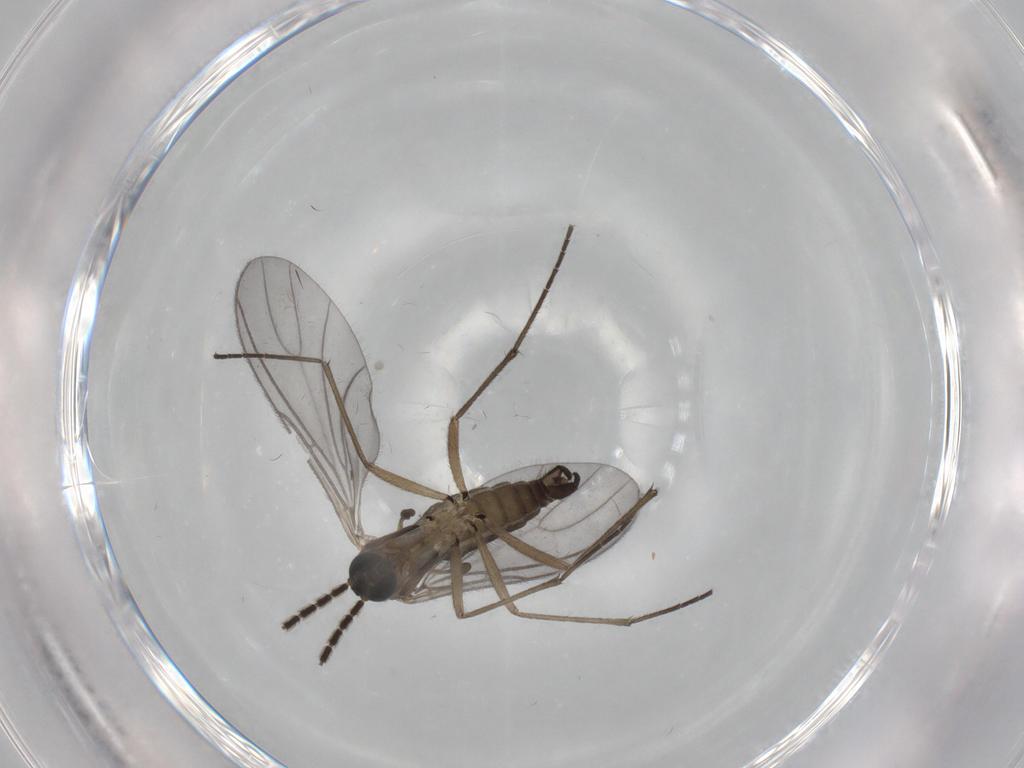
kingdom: Animalia
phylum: Arthropoda
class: Insecta
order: Diptera
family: Sciaridae
